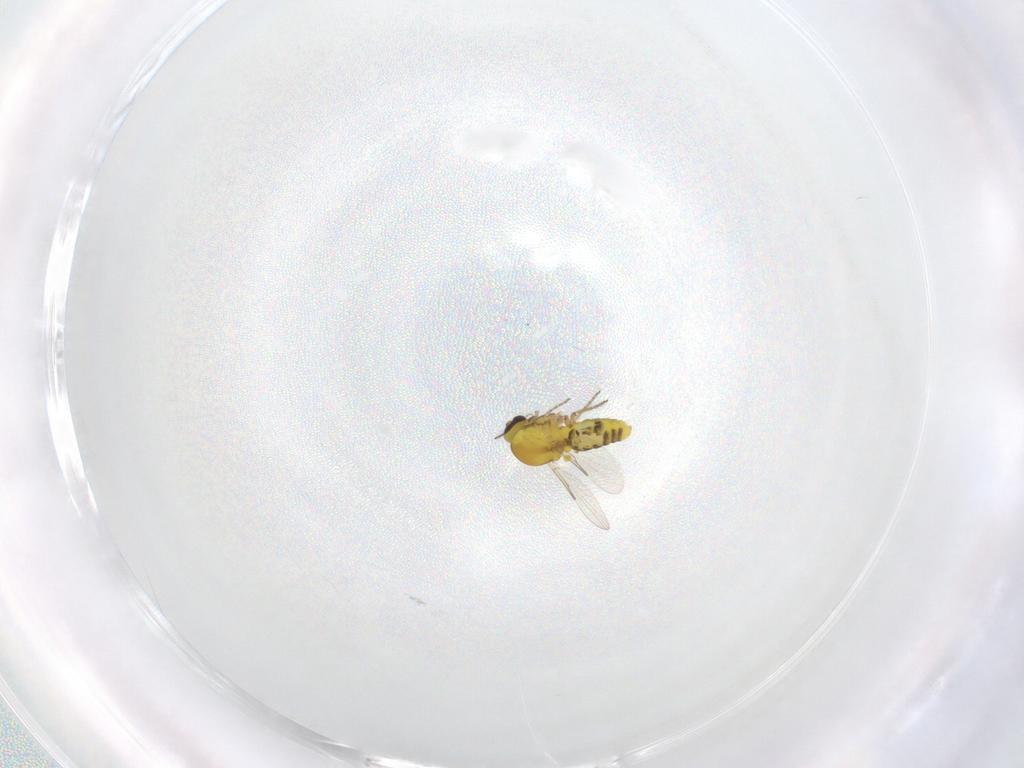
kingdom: Animalia
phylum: Arthropoda
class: Insecta
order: Diptera
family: Ceratopogonidae
